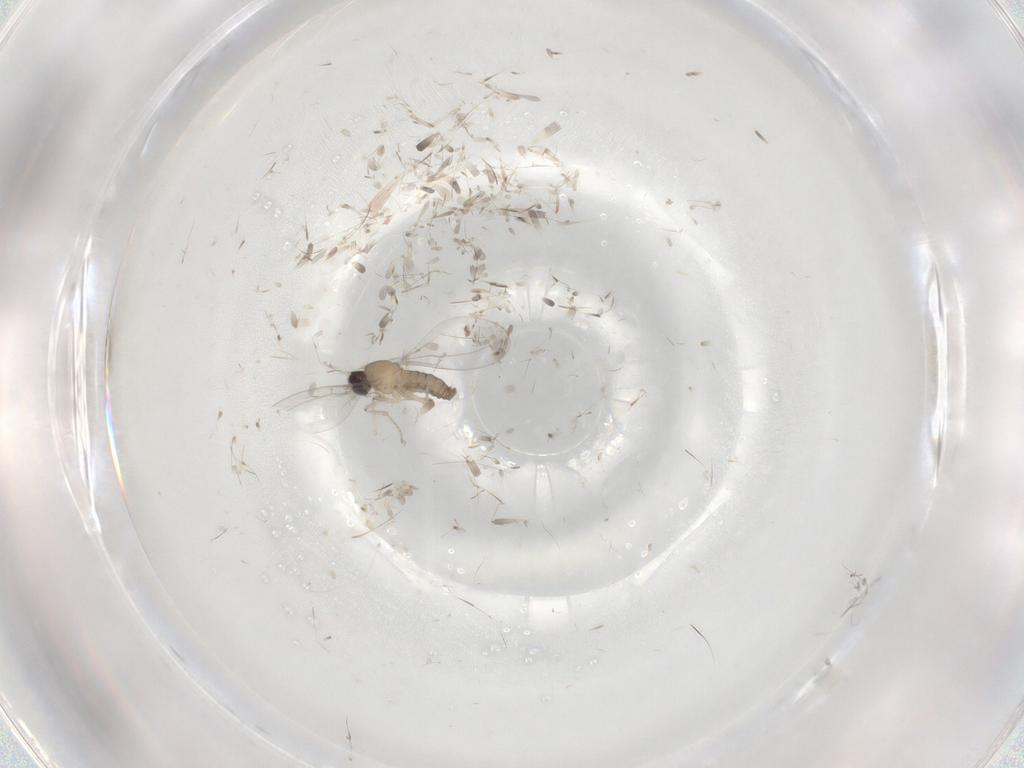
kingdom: Animalia
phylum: Arthropoda
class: Insecta
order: Diptera
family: Cecidomyiidae
